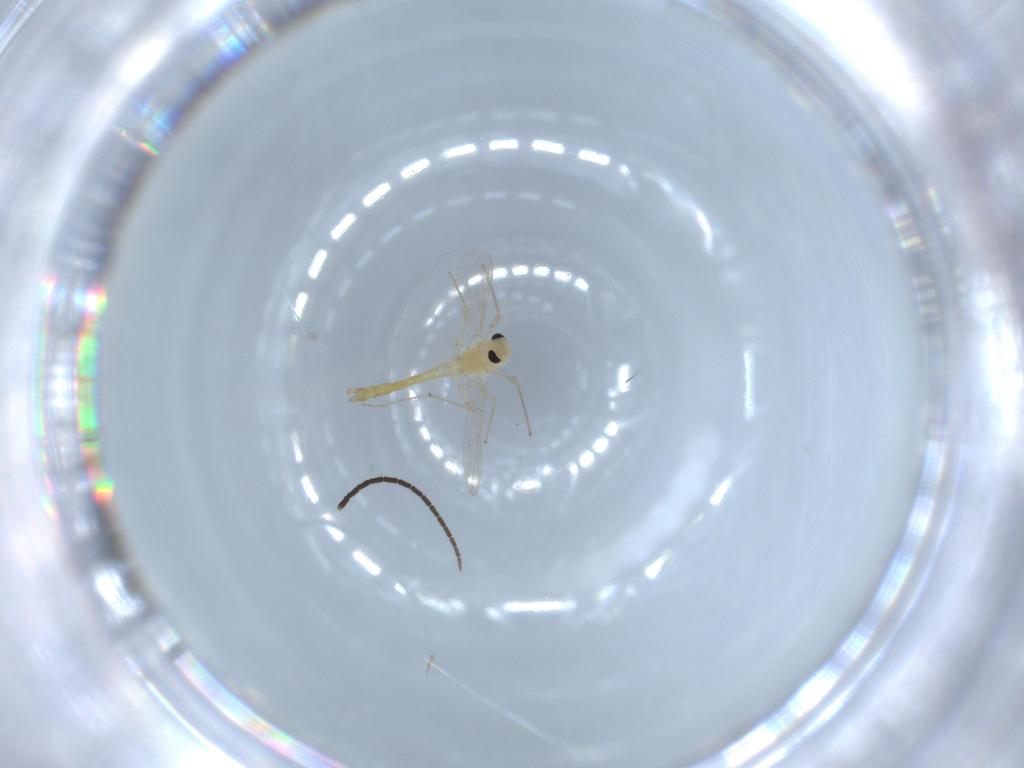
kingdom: Animalia
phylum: Arthropoda
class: Insecta
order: Diptera
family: Chironomidae
